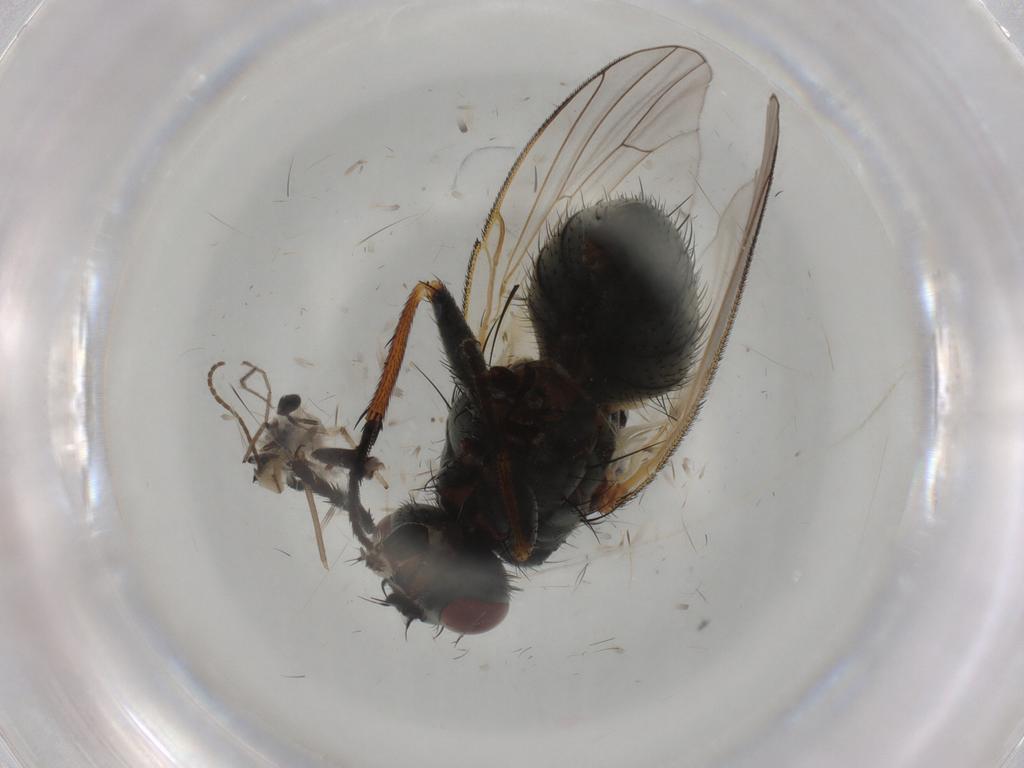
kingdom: Animalia
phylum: Arthropoda
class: Insecta
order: Diptera
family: Muscidae
